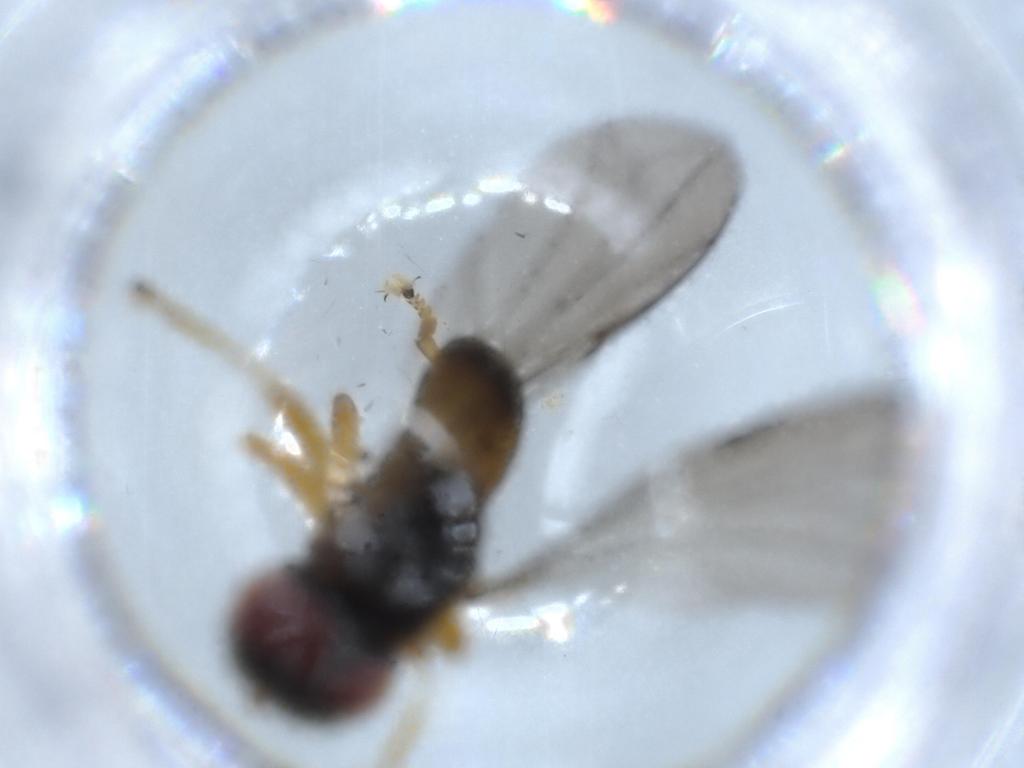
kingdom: Animalia
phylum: Arthropoda
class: Insecta
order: Diptera
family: Pipunculidae
